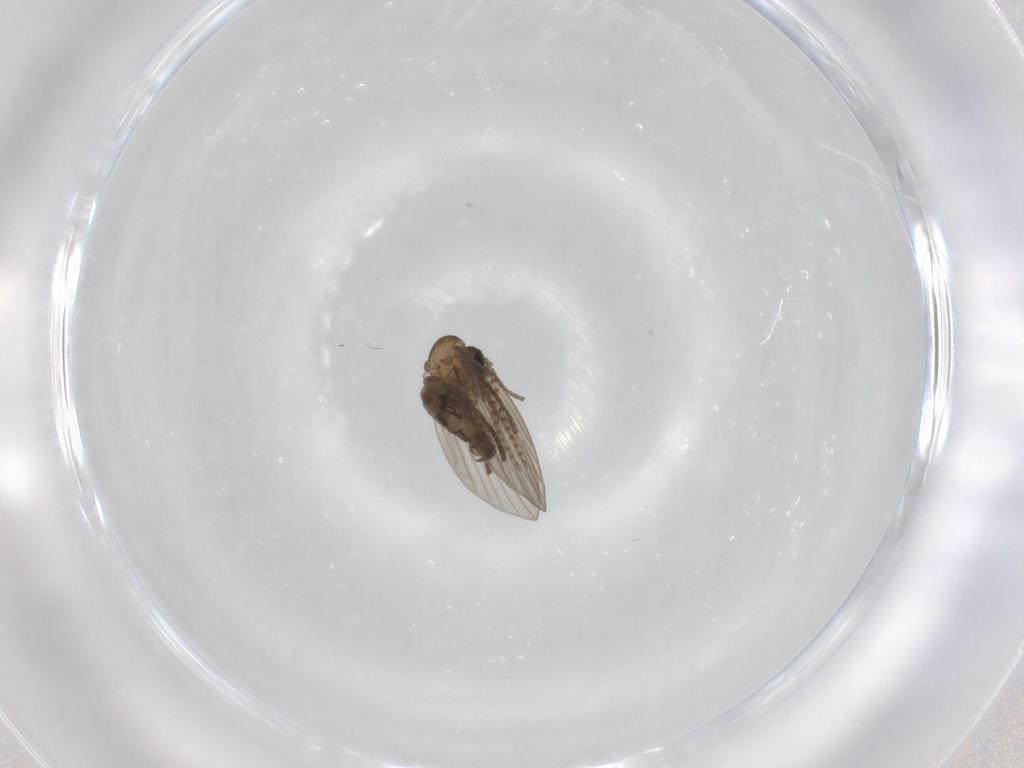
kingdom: Animalia
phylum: Arthropoda
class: Insecta
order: Diptera
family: Psychodidae
